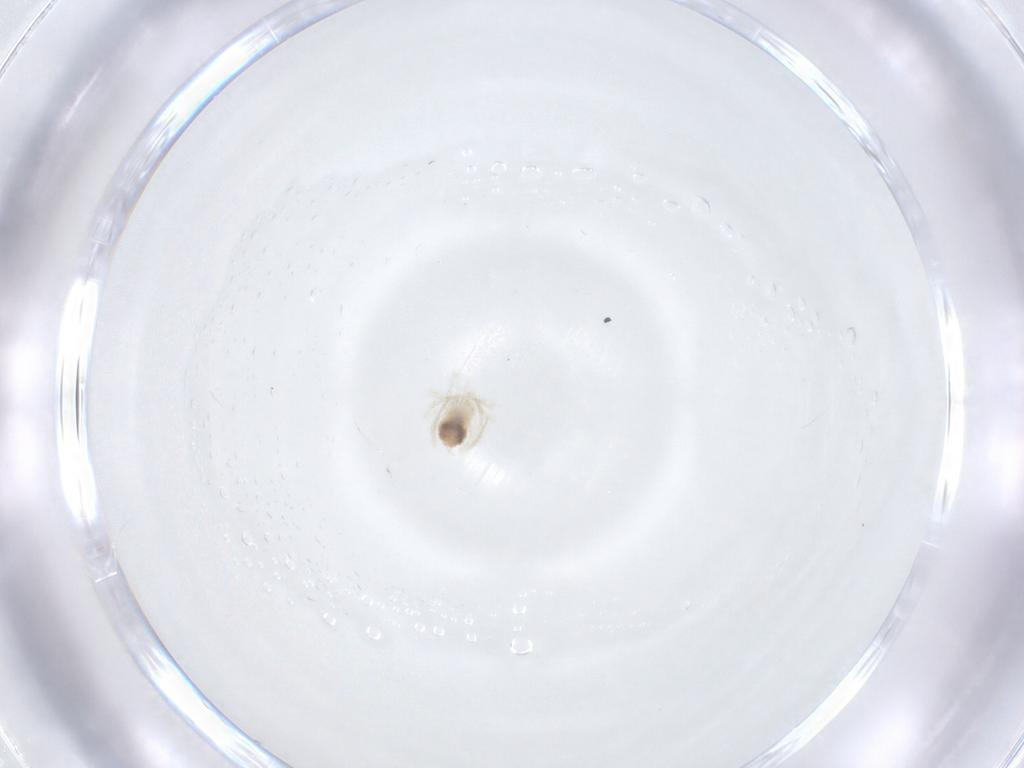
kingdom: Animalia
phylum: Arthropoda
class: Arachnida
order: Trombidiformes
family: Anystidae
